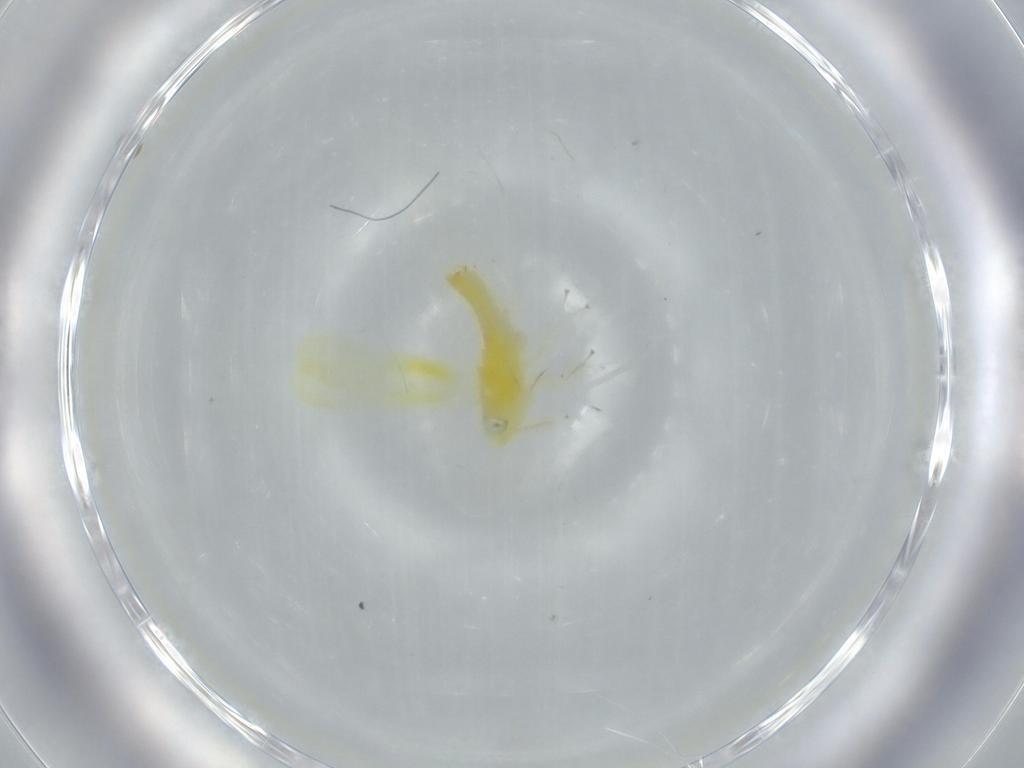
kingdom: Animalia
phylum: Arthropoda
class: Insecta
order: Hemiptera
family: Cicadellidae
